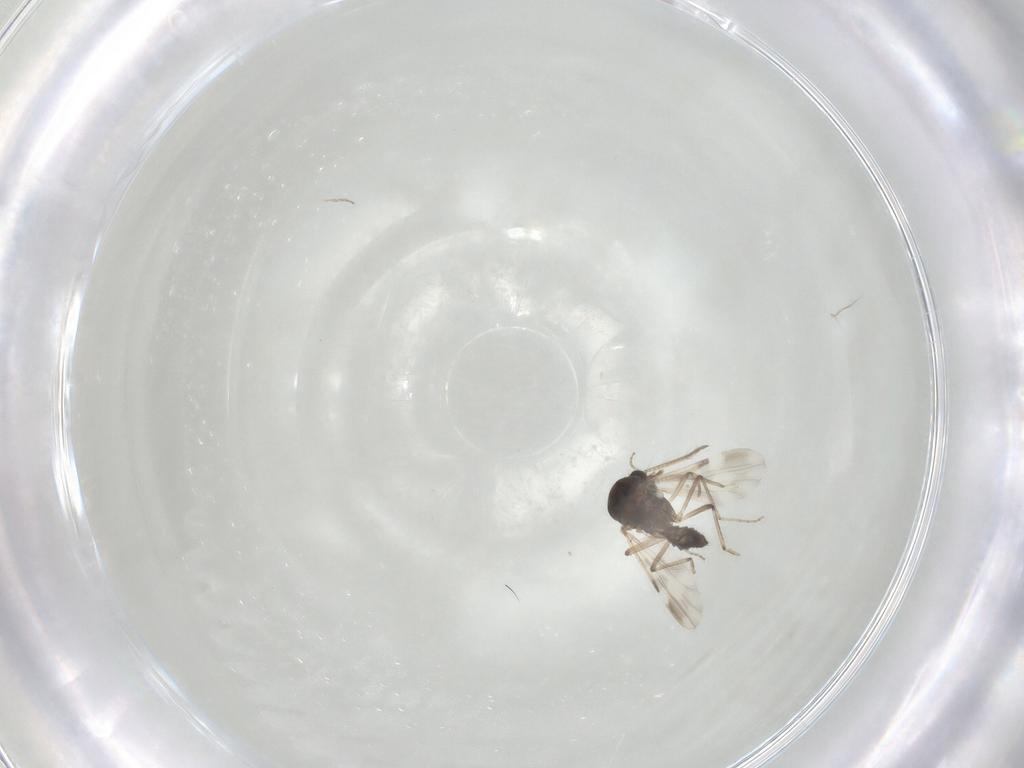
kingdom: Animalia
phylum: Arthropoda
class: Insecta
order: Diptera
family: Ceratopogonidae
